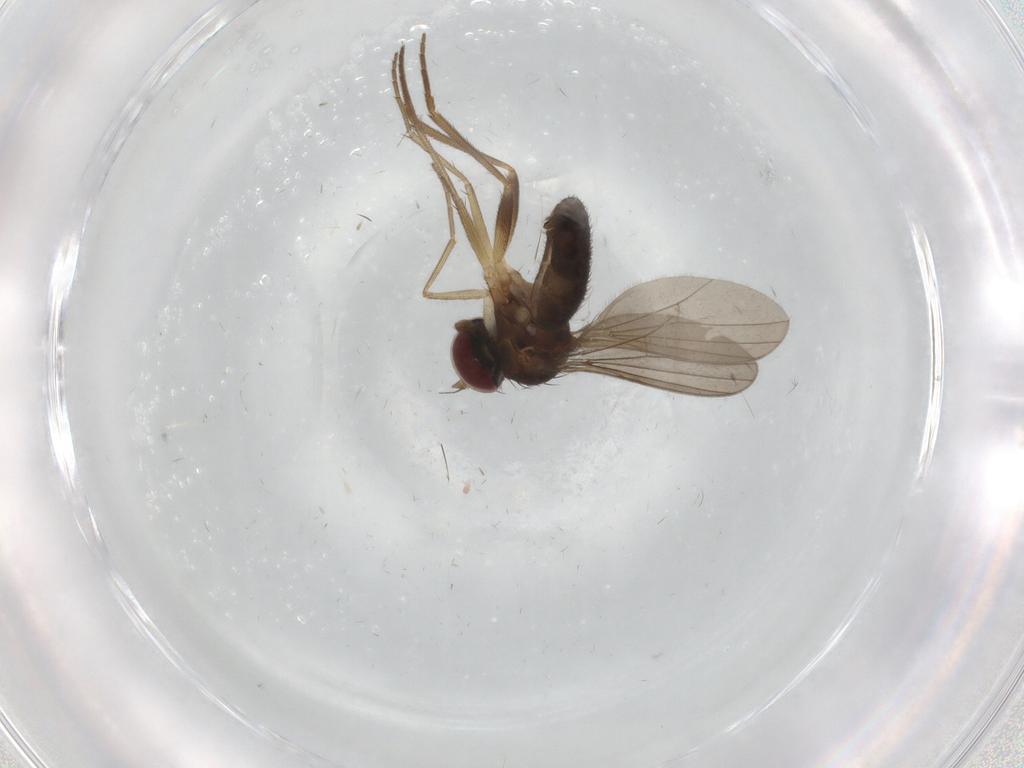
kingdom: Animalia
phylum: Arthropoda
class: Insecta
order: Diptera
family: Dolichopodidae
